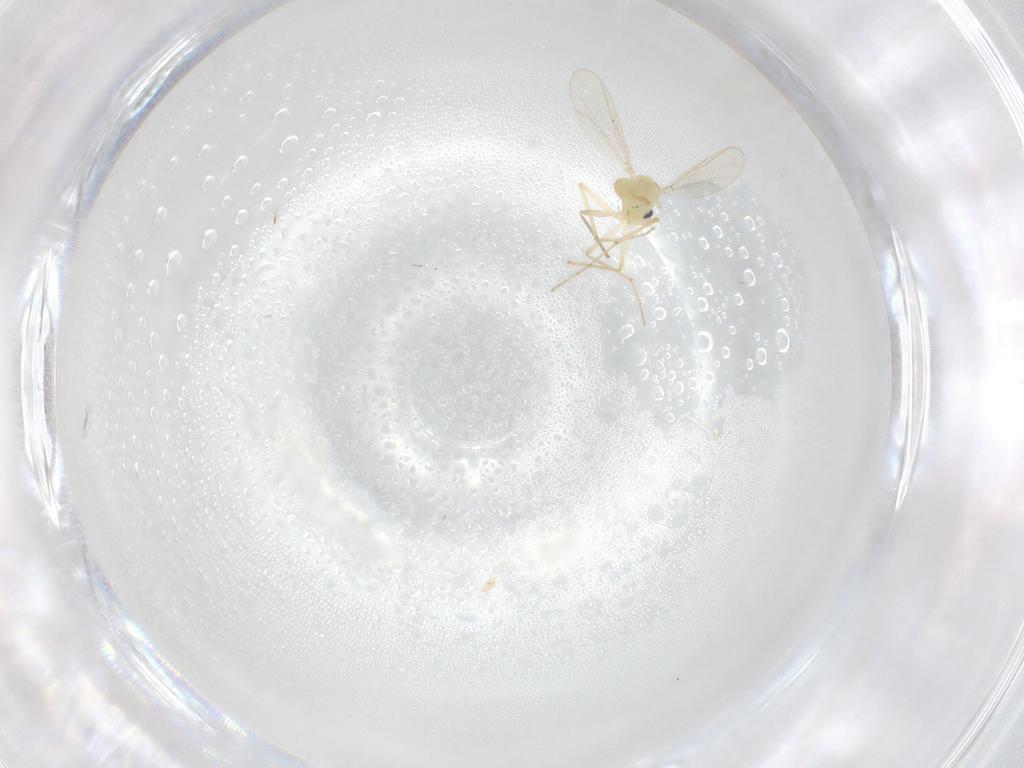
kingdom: Animalia
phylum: Arthropoda
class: Insecta
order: Diptera
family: Chironomidae
